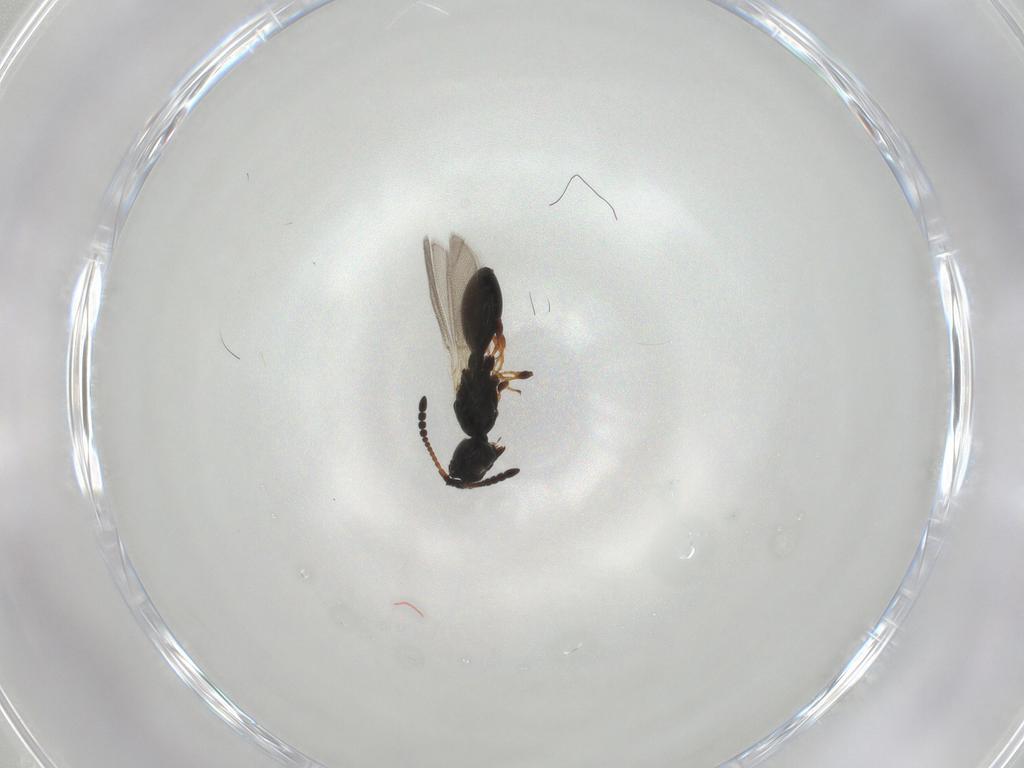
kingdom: Animalia
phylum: Arthropoda
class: Insecta
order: Hymenoptera
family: Diapriidae
